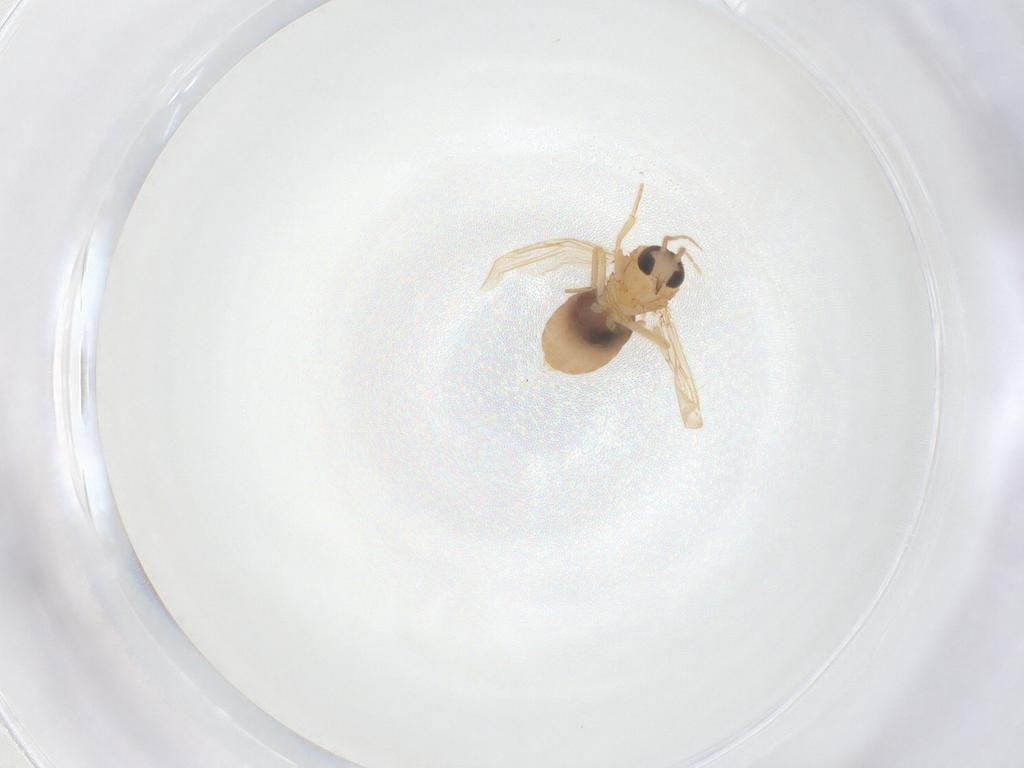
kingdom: Animalia
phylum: Arthropoda
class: Insecta
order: Diptera
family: Ceratopogonidae
